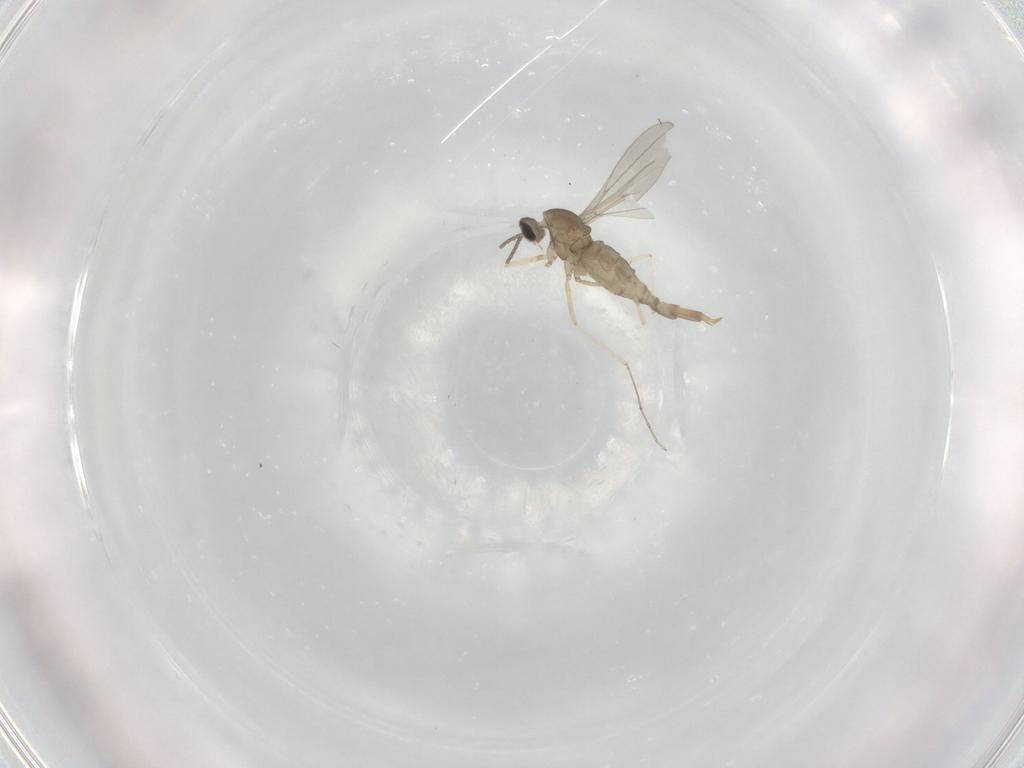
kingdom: Animalia
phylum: Arthropoda
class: Insecta
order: Diptera
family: Cecidomyiidae
